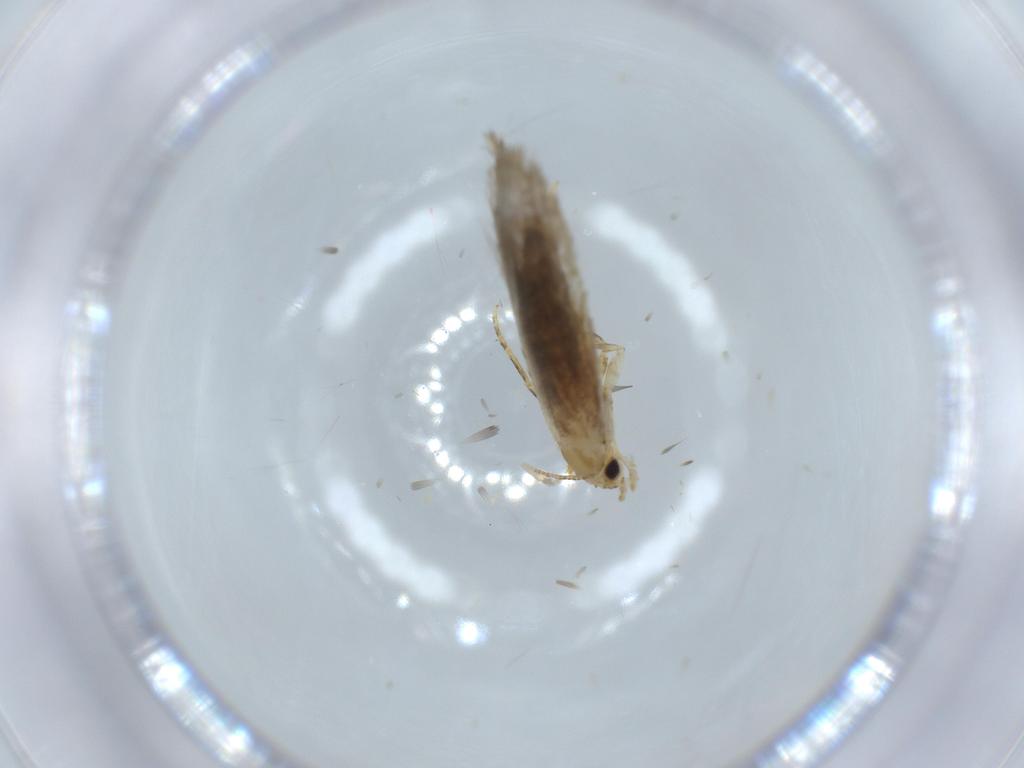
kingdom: Animalia
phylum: Arthropoda
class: Insecta
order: Lepidoptera
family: Tineidae
